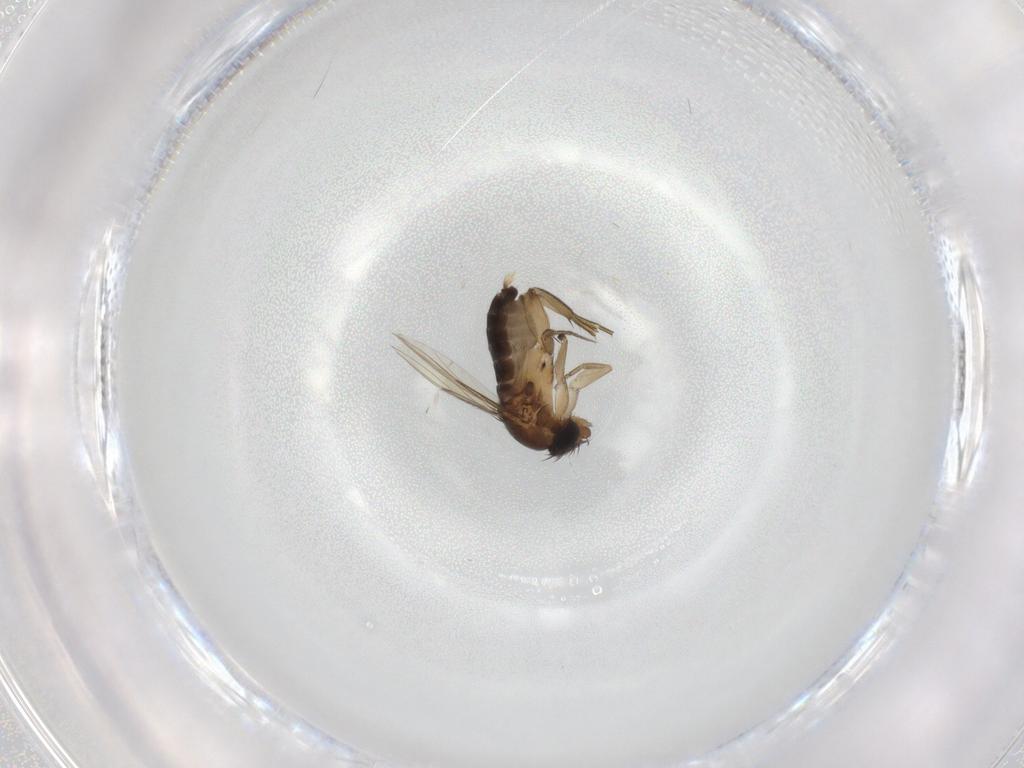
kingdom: Animalia
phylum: Arthropoda
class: Insecta
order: Diptera
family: Phoridae
